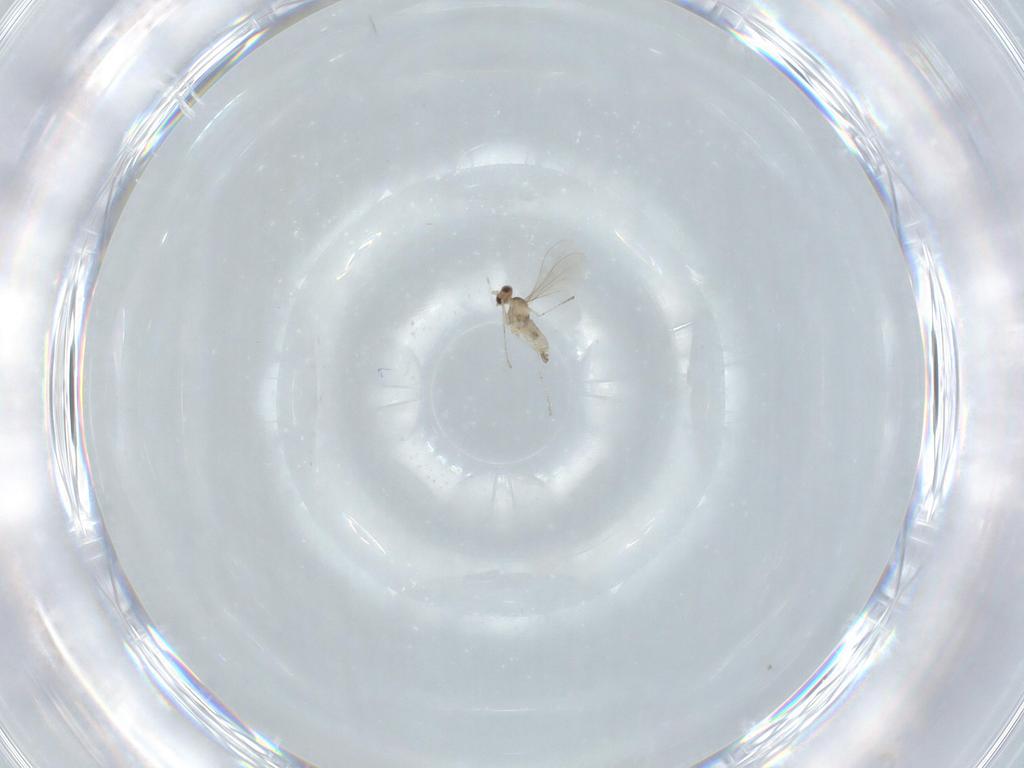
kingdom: Animalia
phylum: Arthropoda
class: Insecta
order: Diptera
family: Cecidomyiidae
